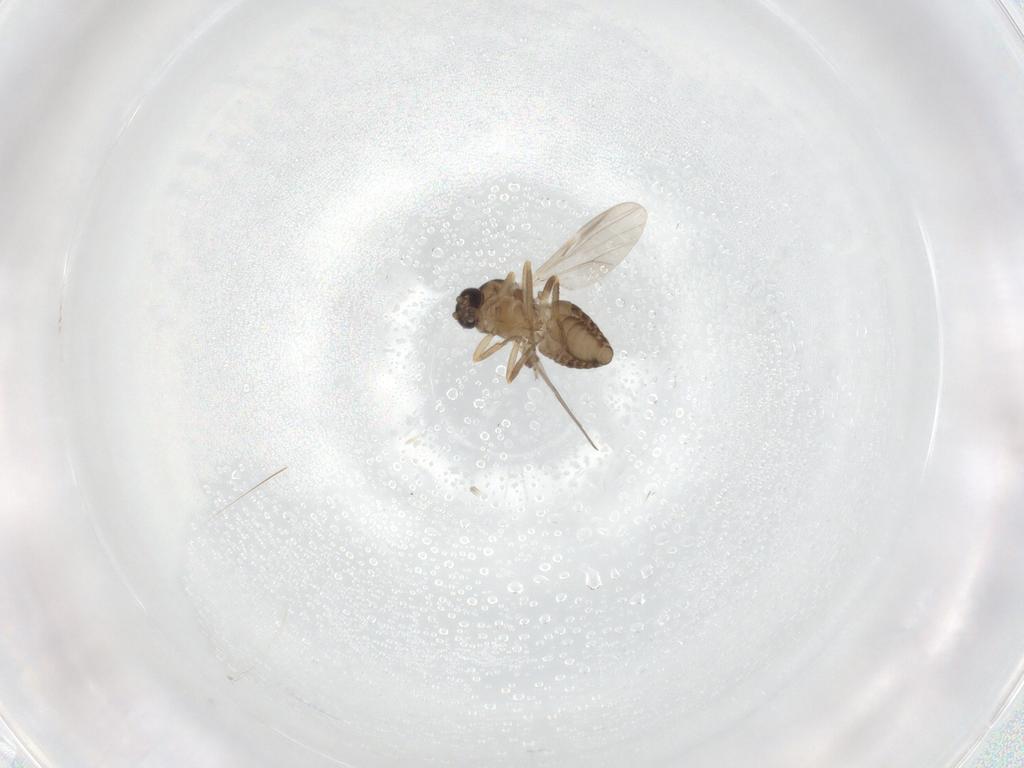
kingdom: Animalia
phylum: Arthropoda
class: Insecta
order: Diptera
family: Ceratopogonidae
